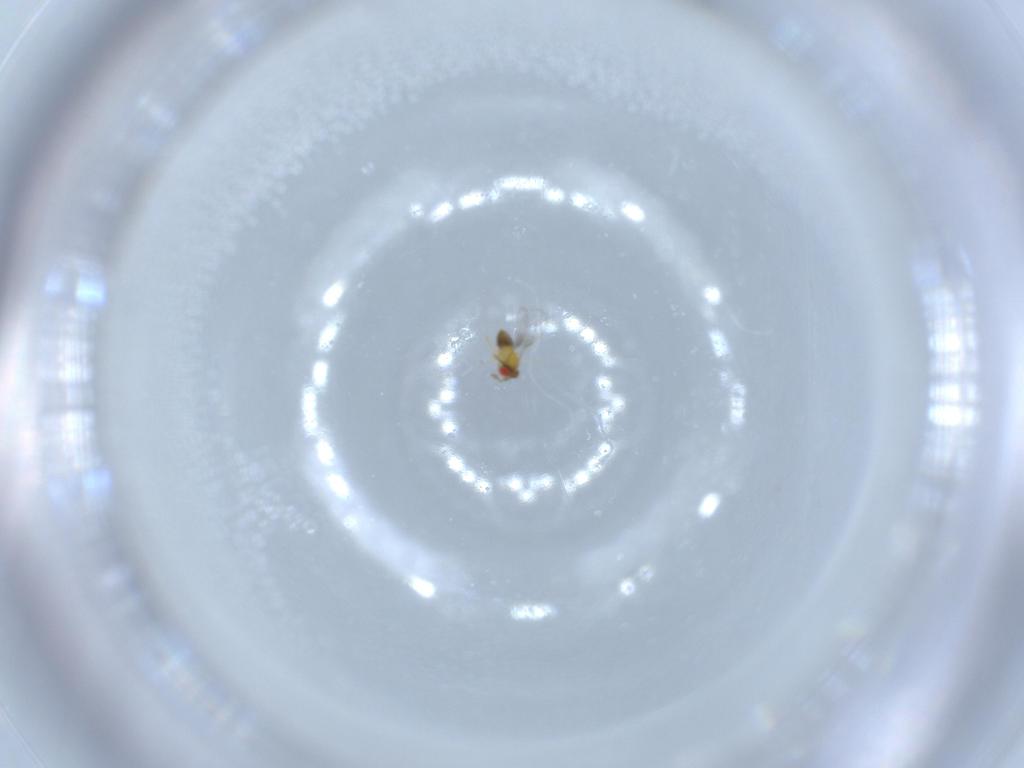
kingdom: Animalia
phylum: Arthropoda
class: Insecta
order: Hymenoptera
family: Trichogrammatidae
